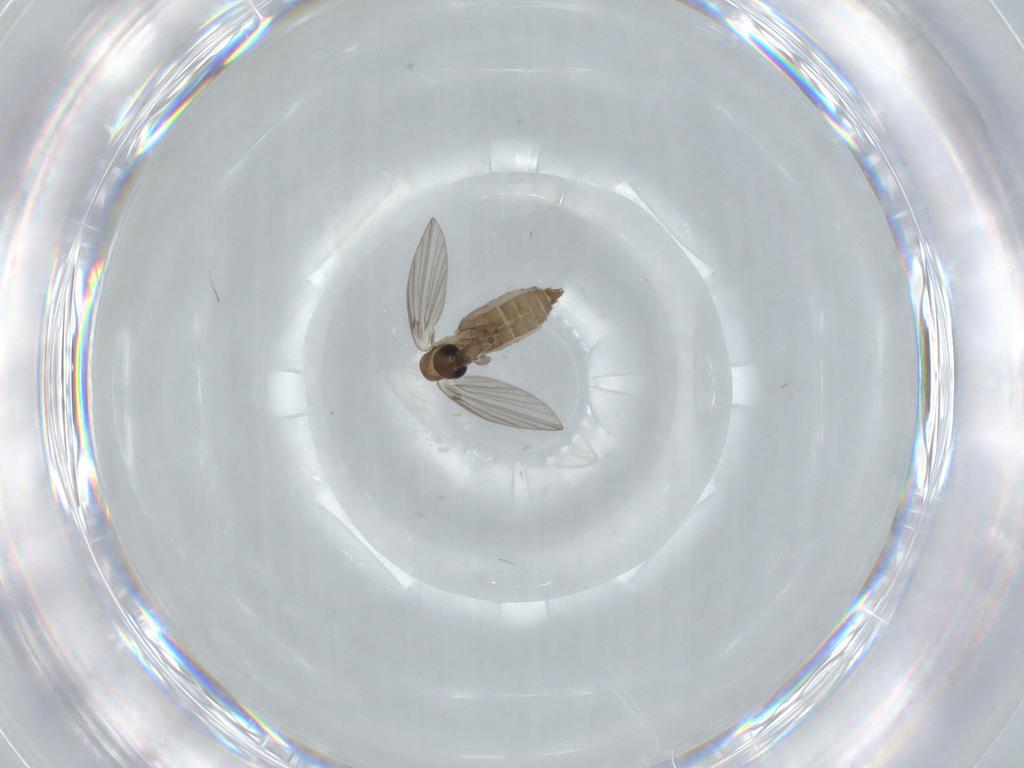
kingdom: Animalia
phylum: Arthropoda
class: Insecta
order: Diptera
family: Psychodidae
